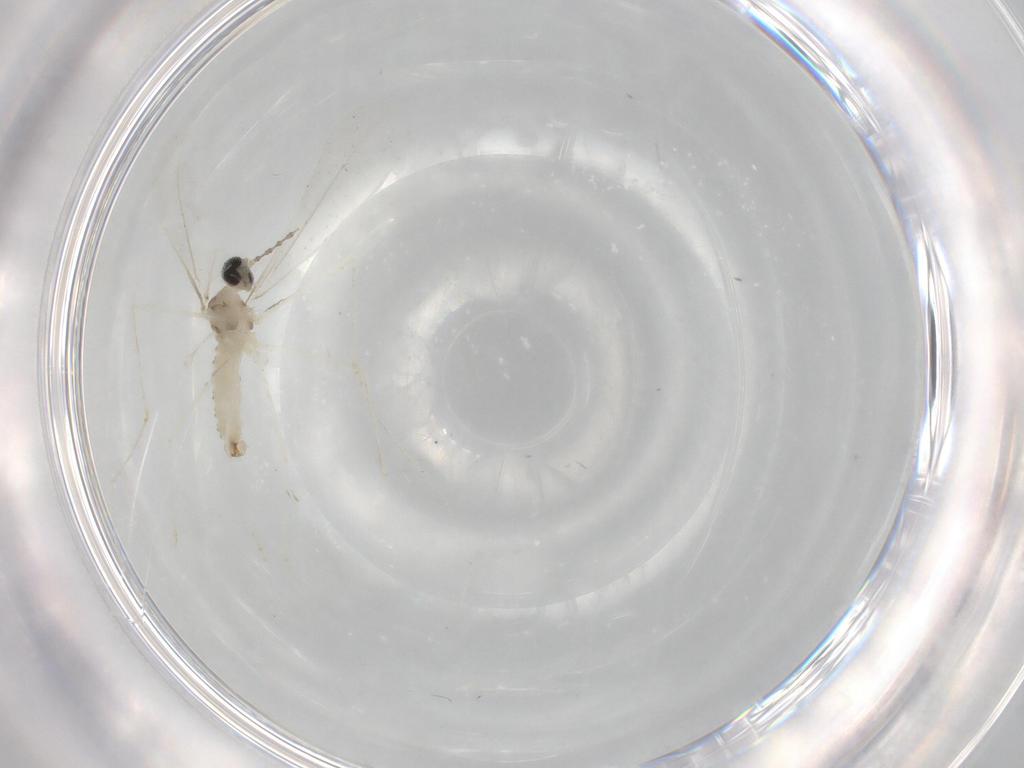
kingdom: Animalia
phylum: Arthropoda
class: Insecta
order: Diptera
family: Cecidomyiidae
